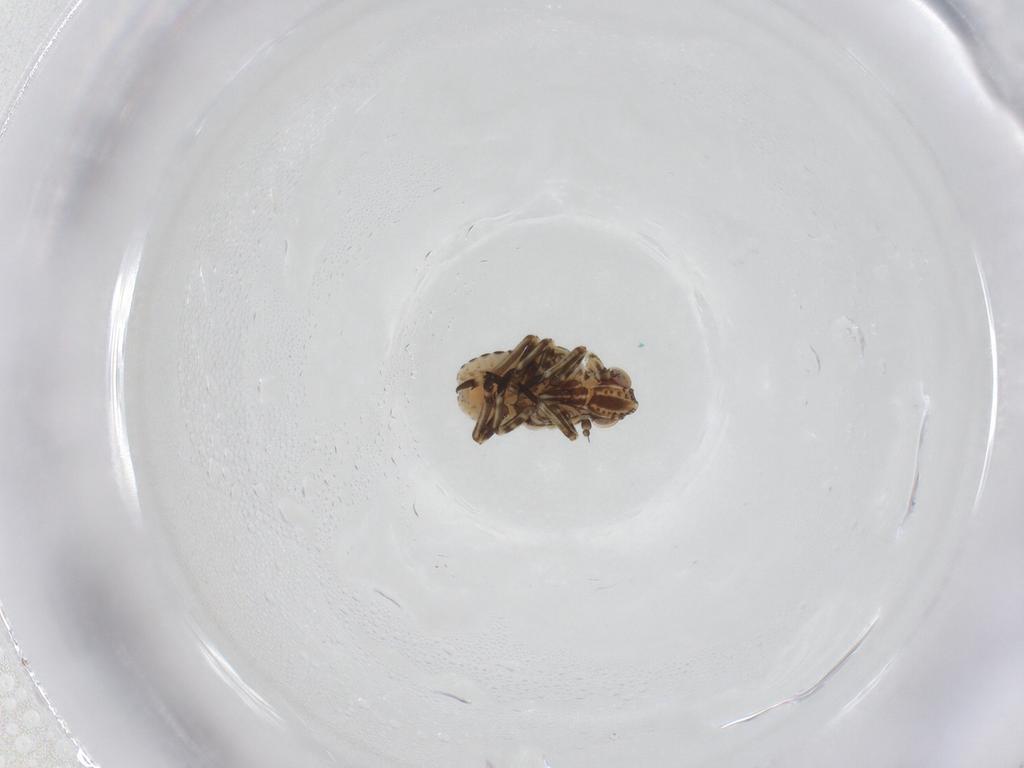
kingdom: Animalia
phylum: Arthropoda
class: Insecta
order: Hemiptera
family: Dictyopharidae
